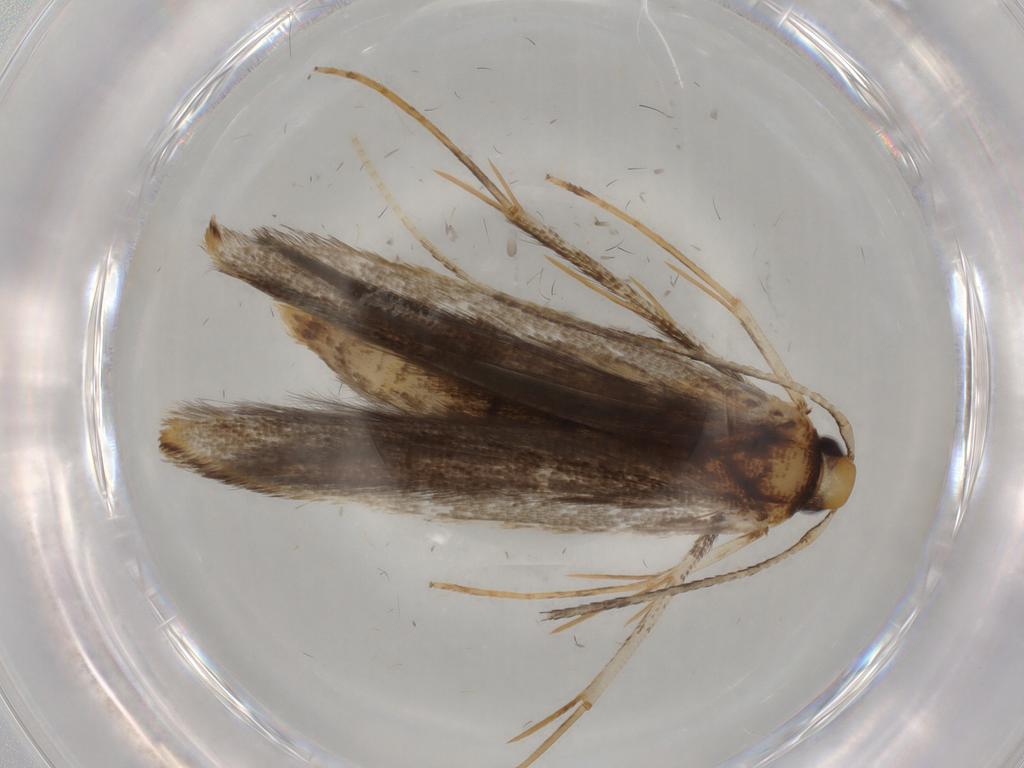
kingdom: Animalia
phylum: Arthropoda
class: Insecta
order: Lepidoptera
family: Pterolonchidae
